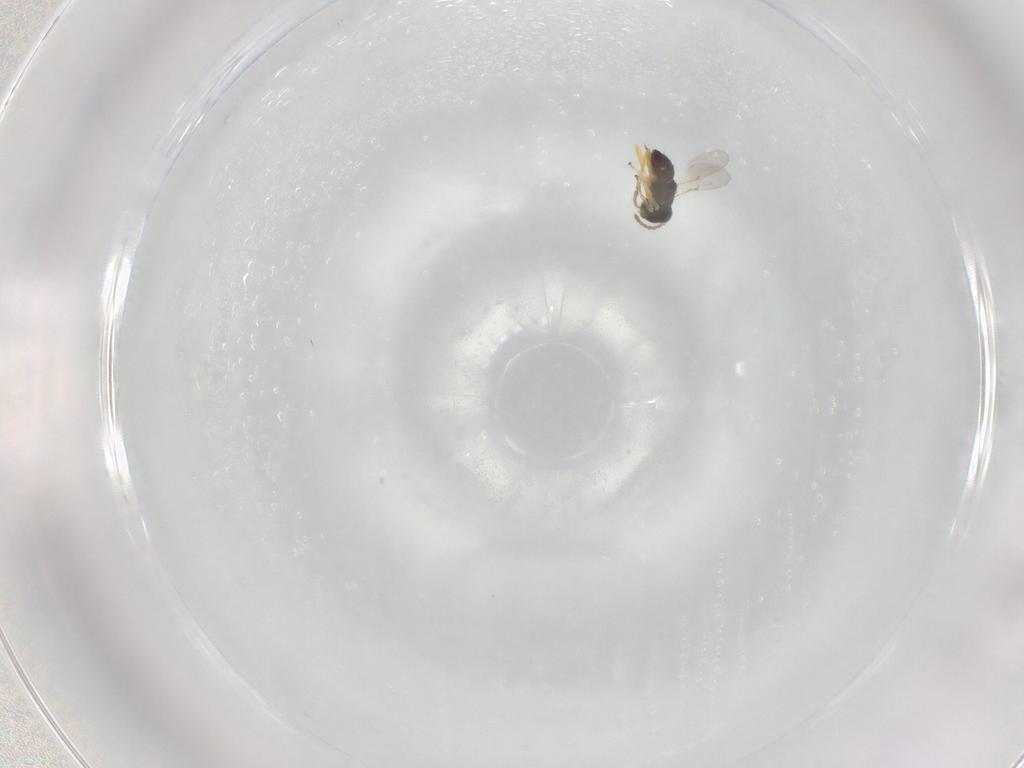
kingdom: Animalia
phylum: Arthropoda
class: Insecta
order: Hymenoptera
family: Encyrtidae
